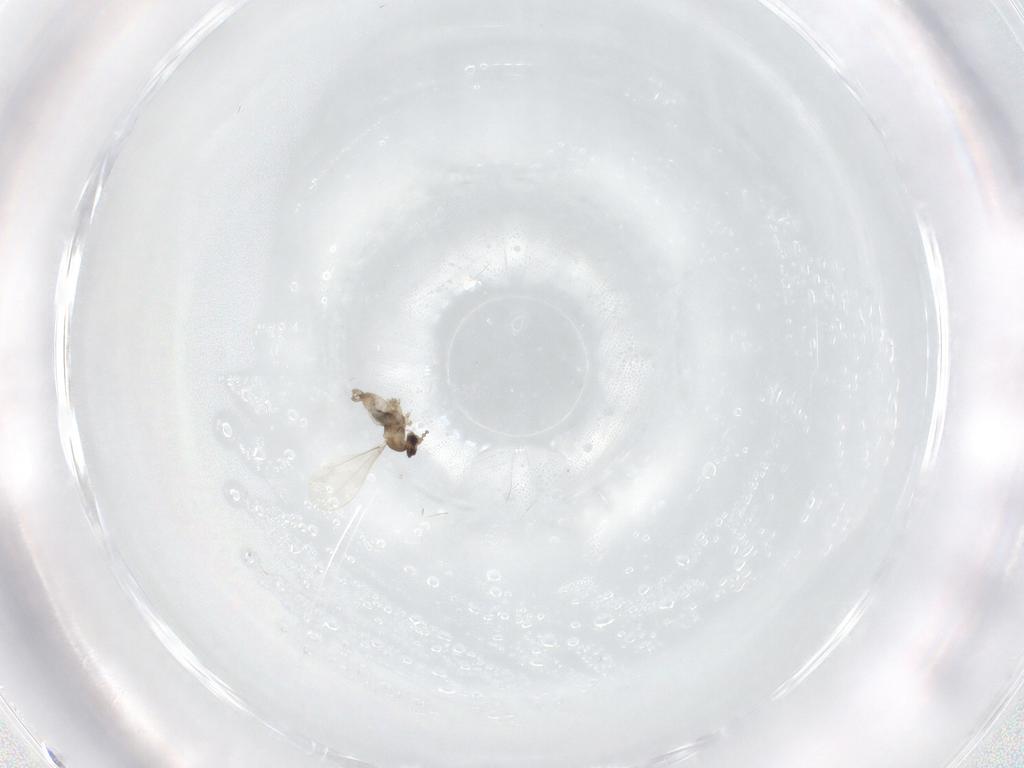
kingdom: Animalia
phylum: Arthropoda
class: Insecta
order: Diptera
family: Cecidomyiidae
